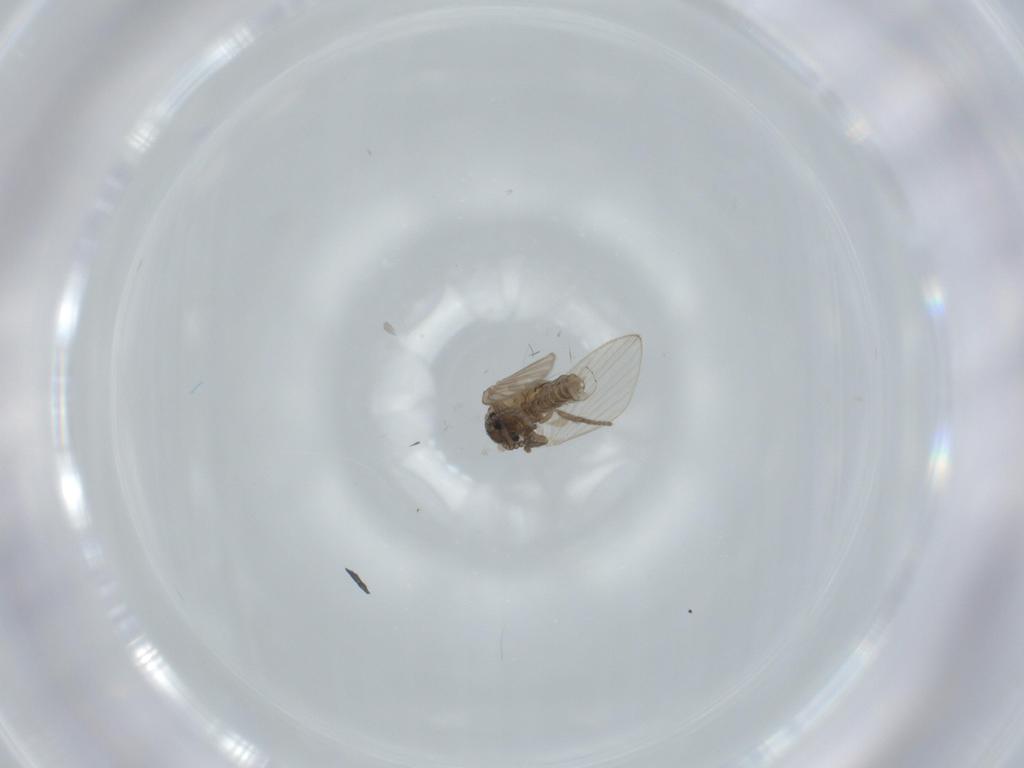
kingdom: Animalia
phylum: Arthropoda
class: Insecta
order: Diptera
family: Psychodidae
